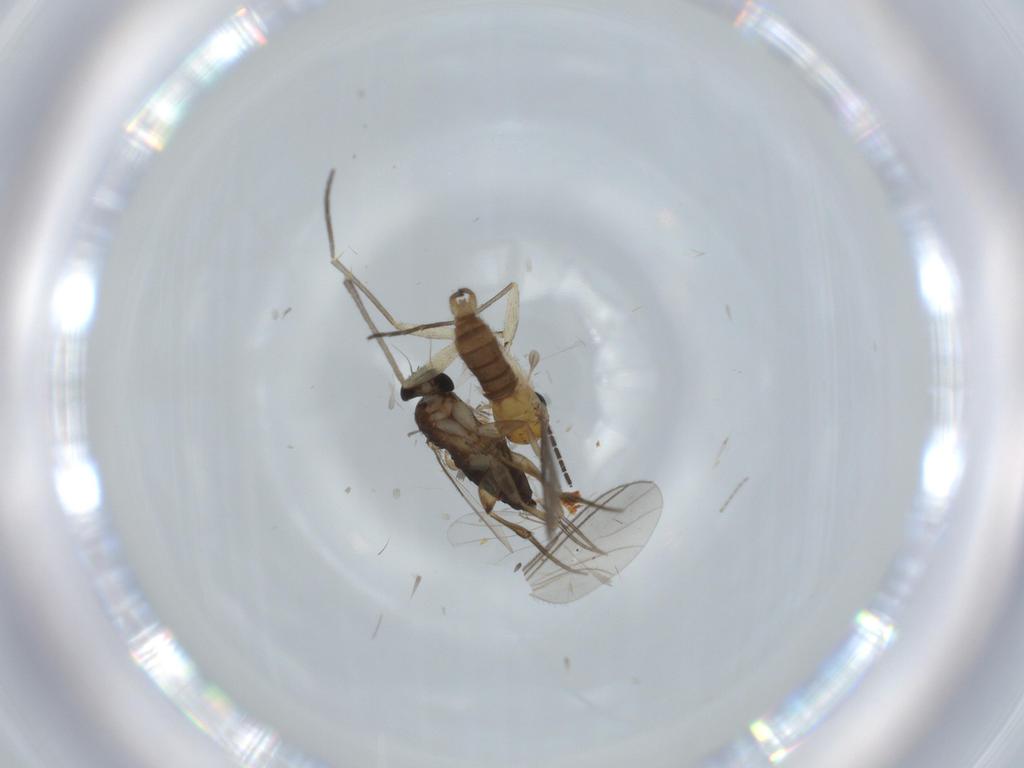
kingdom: Animalia
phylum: Arthropoda
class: Insecta
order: Diptera
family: Phoridae
